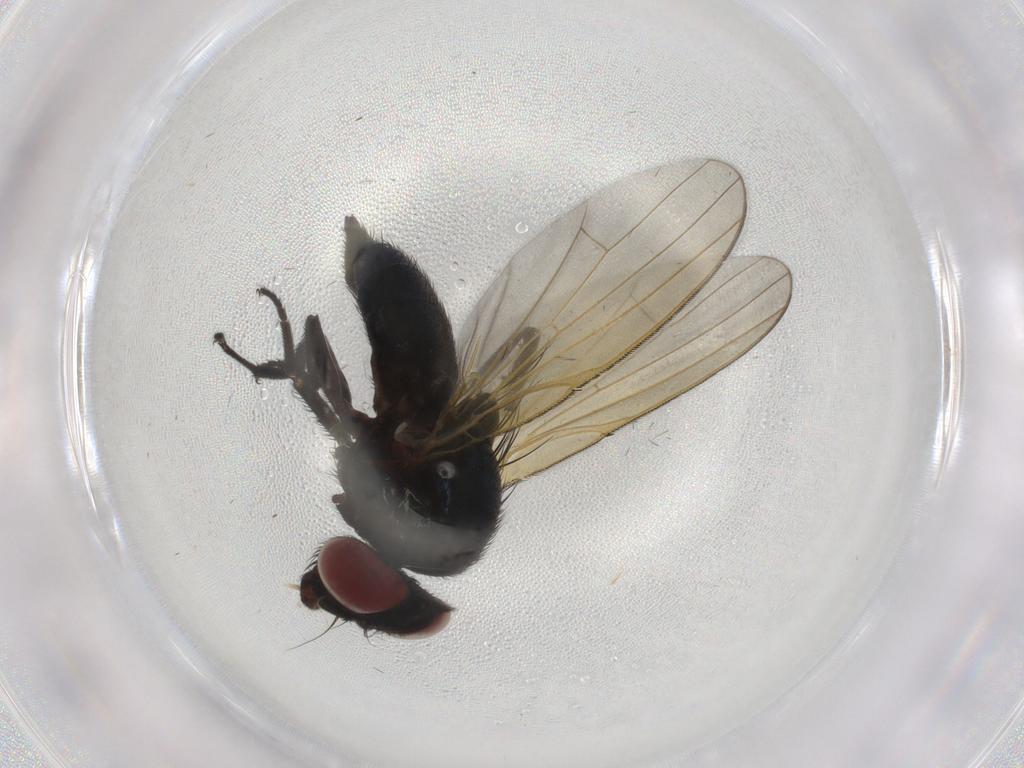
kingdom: Animalia
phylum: Arthropoda
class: Insecta
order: Diptera
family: Lonchaeidae
